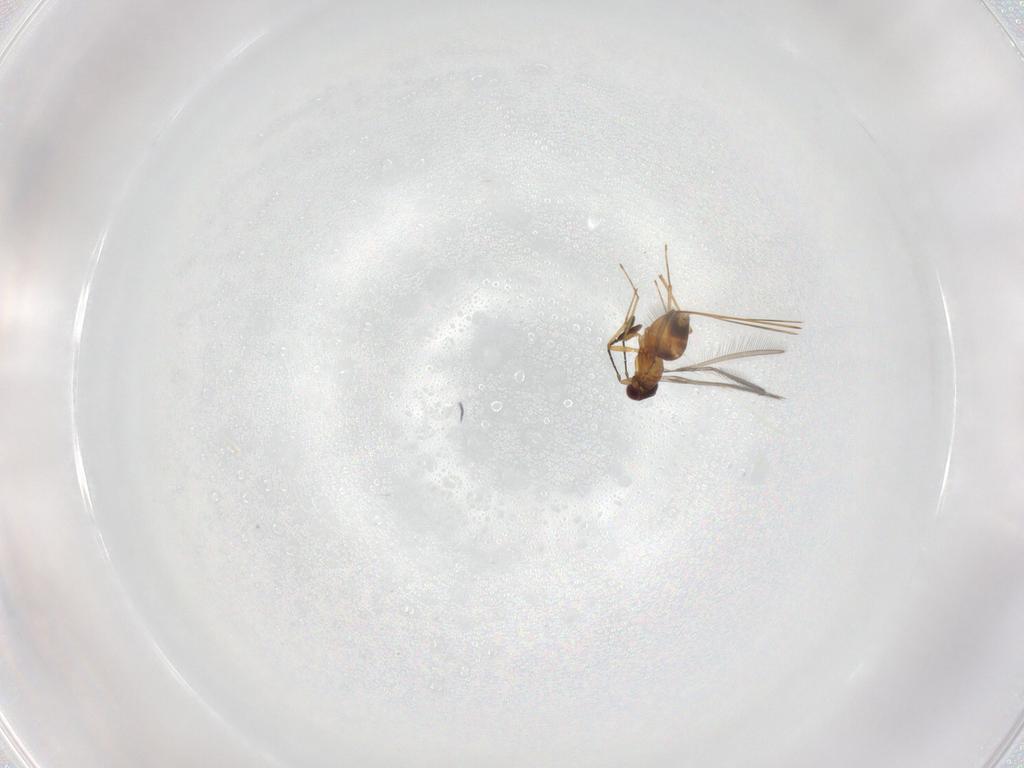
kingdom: Animalia
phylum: Arthropoda
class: Insecta
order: Hymenoptera
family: Mymaridae
